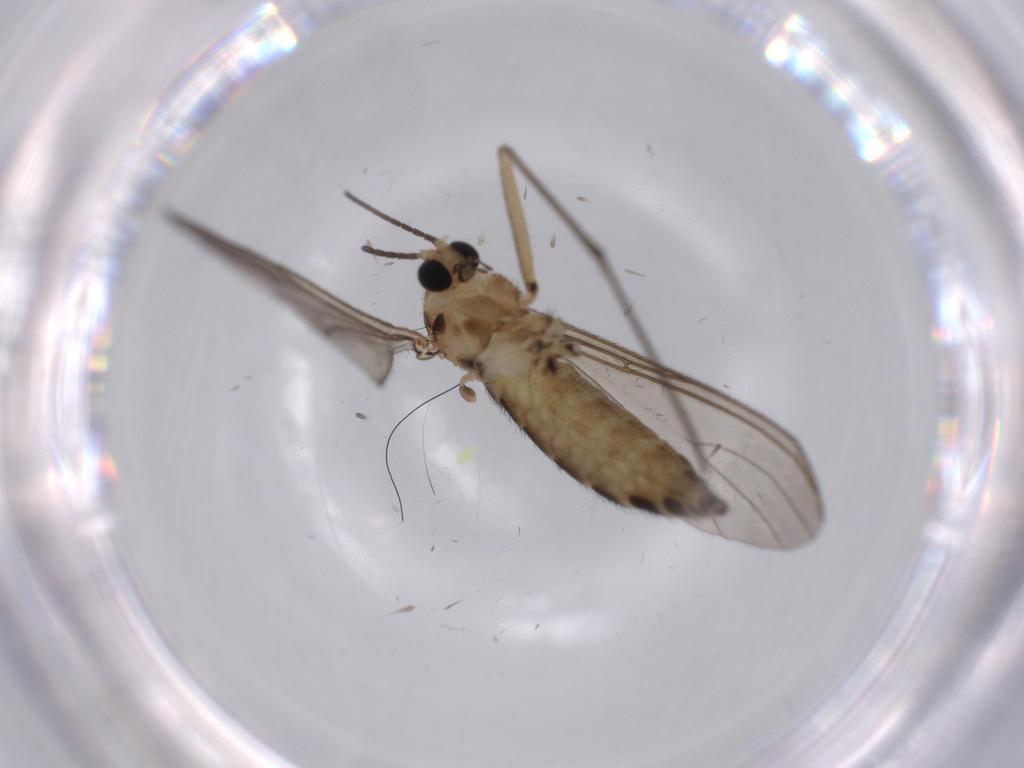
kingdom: Animalia
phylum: Arthropoda
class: Insecta
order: Diptera
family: Sciaridae
